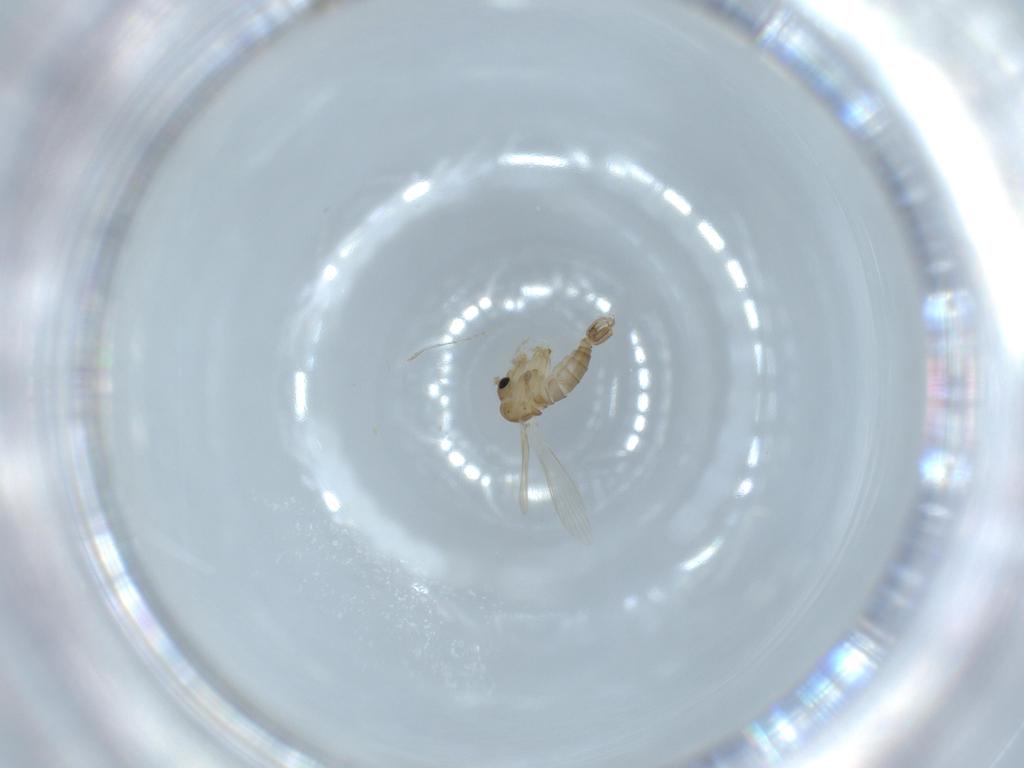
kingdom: Animalia
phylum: Arthropoda
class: Insecta
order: Diptera
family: Psychodidae
